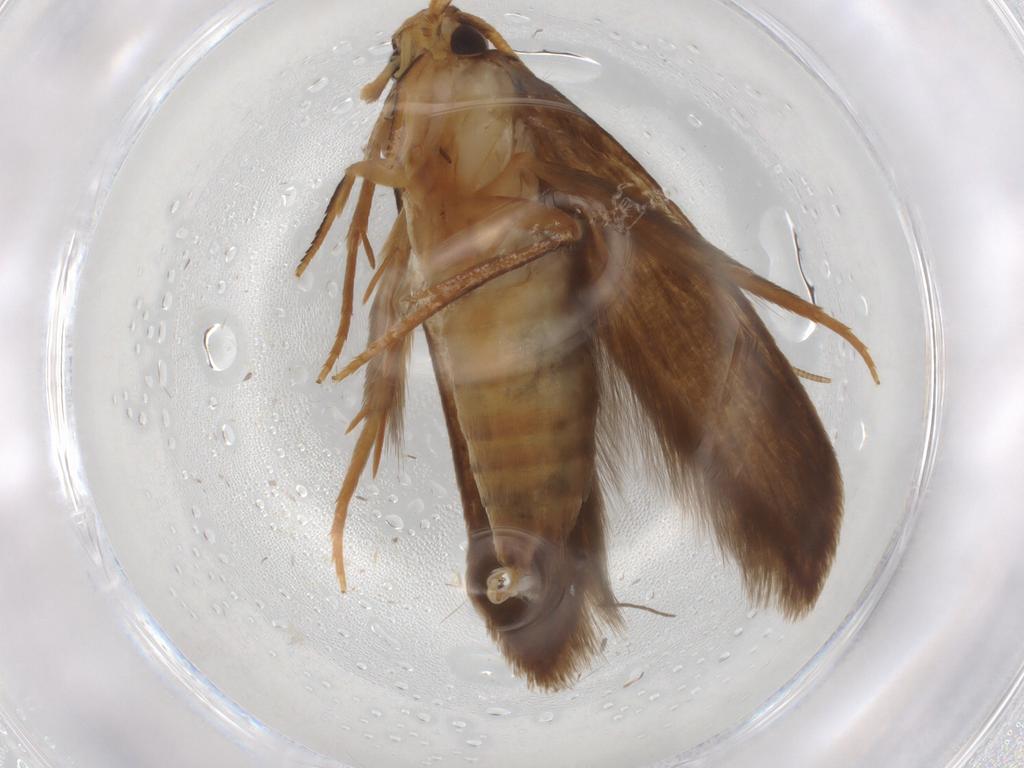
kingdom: Animalia
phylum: Arthropoda
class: Insecta
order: Lepidoptera
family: Tineidae
